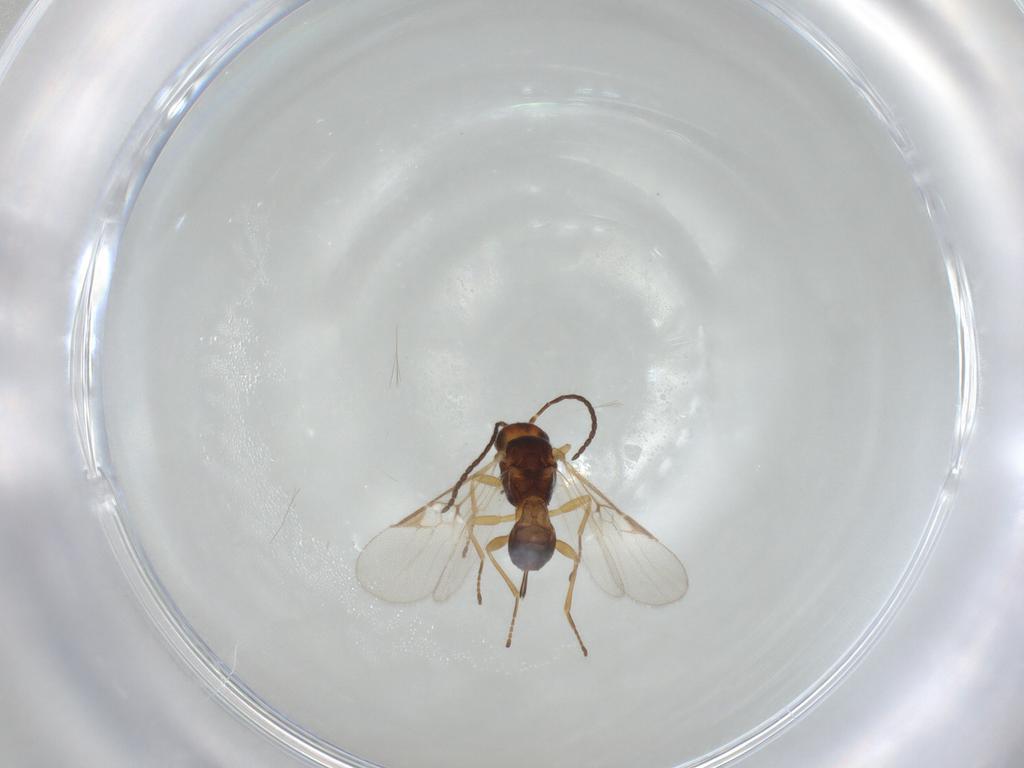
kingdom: Animalia
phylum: Arthropoda
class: Insecta
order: Hymenoptera
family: Braconidae
